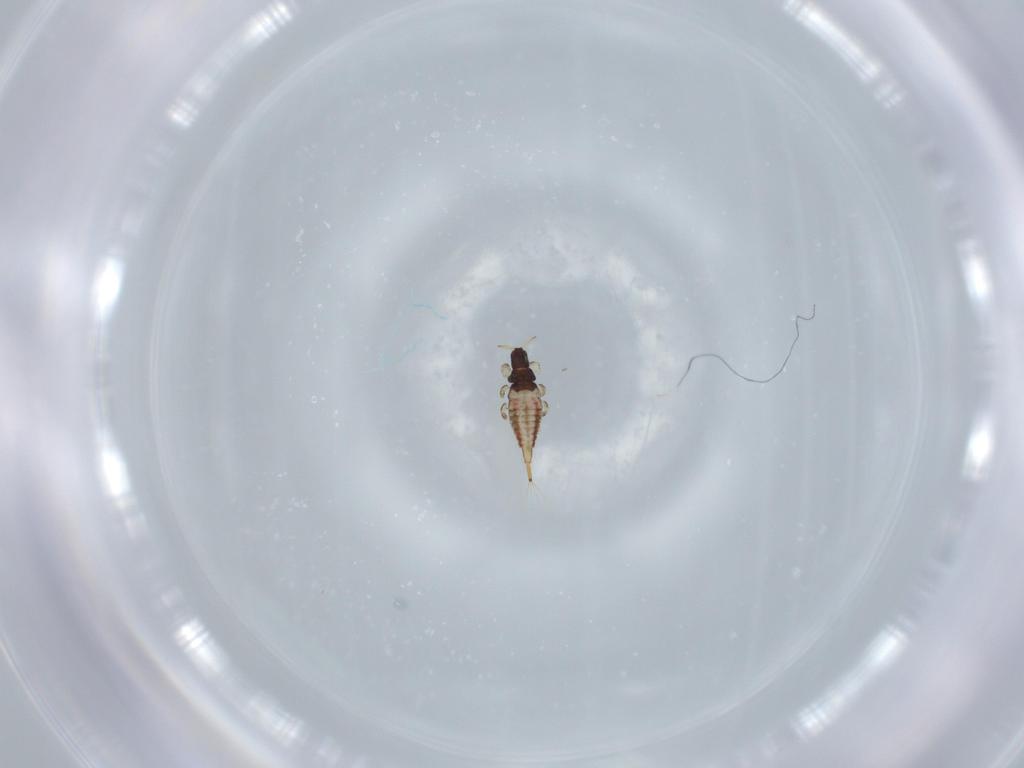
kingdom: Animalia
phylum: Arthropoda
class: Insecta
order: Thysanoptera
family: Phlaeothripidae
